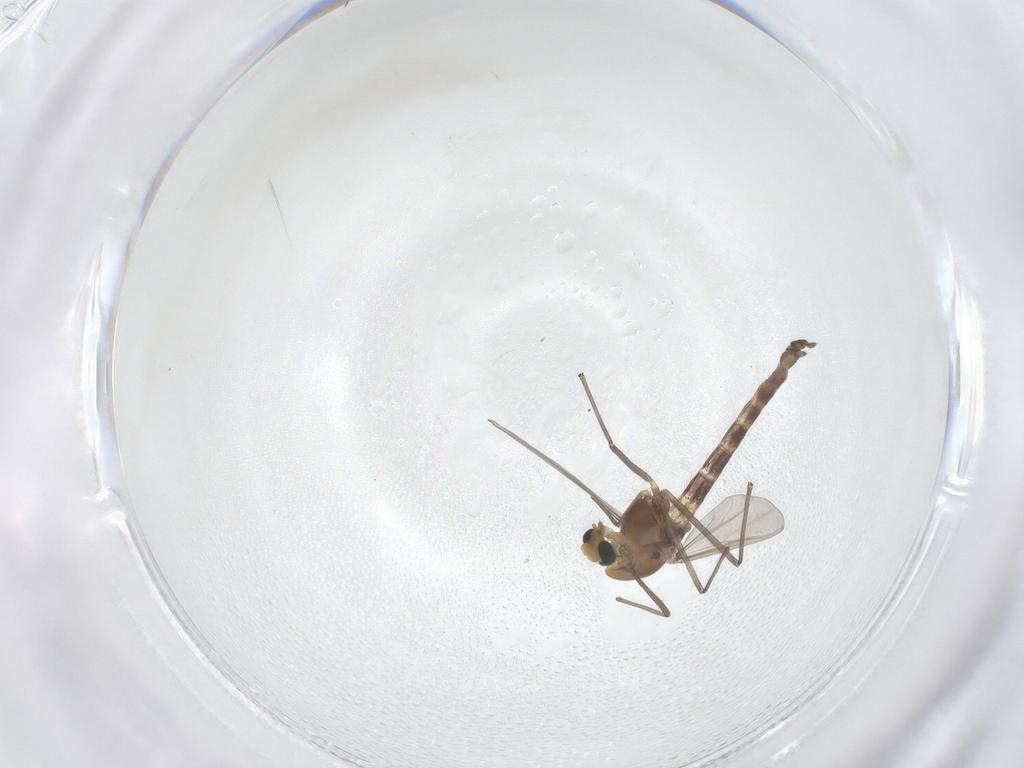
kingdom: Animalia
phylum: Arthropoda
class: Insecta
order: Diptera
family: Chironomidae
